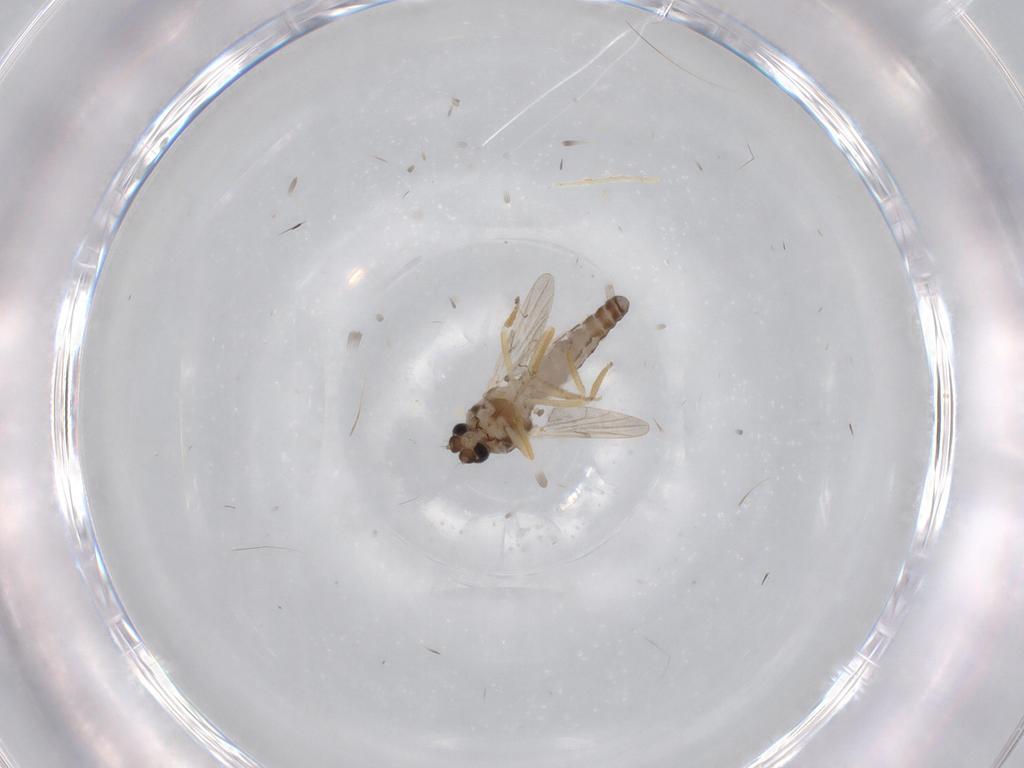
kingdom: Animalia
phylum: Arthropoda
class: Insecta
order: Diptera
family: Ceratopogonidae
